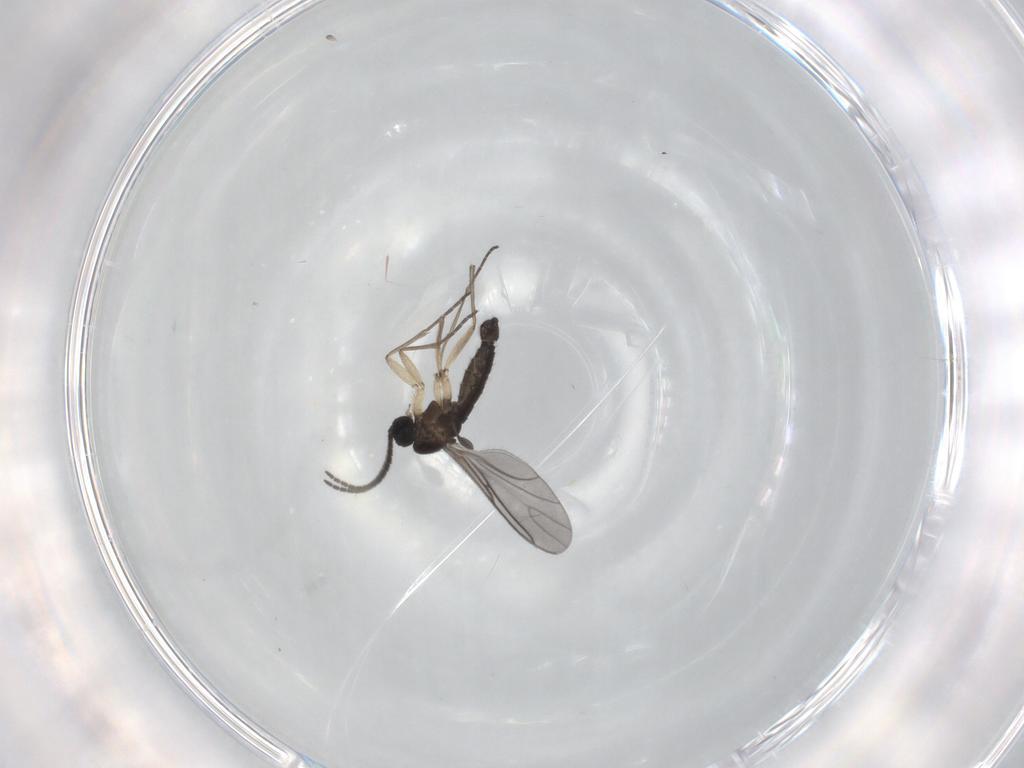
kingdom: Animalia
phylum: Arthropoda
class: Insecta
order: Diptera
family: Sciaridae
